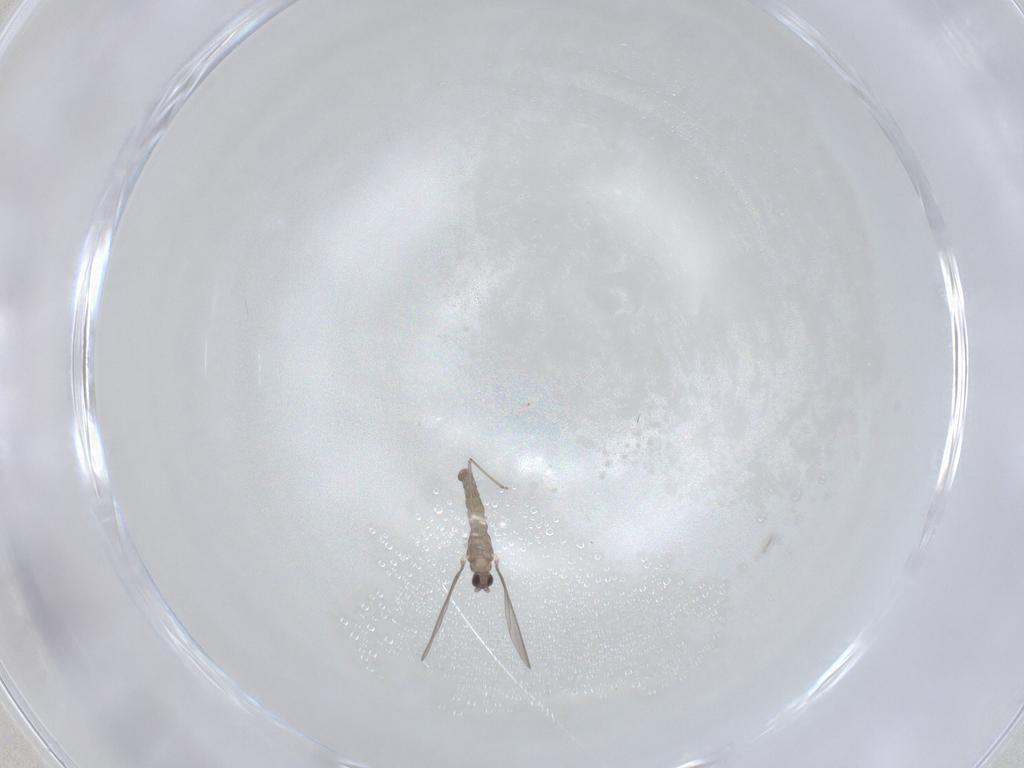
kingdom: Animalia
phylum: Arthropoda
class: Insecta
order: Diptera
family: Cecidomyiidae
